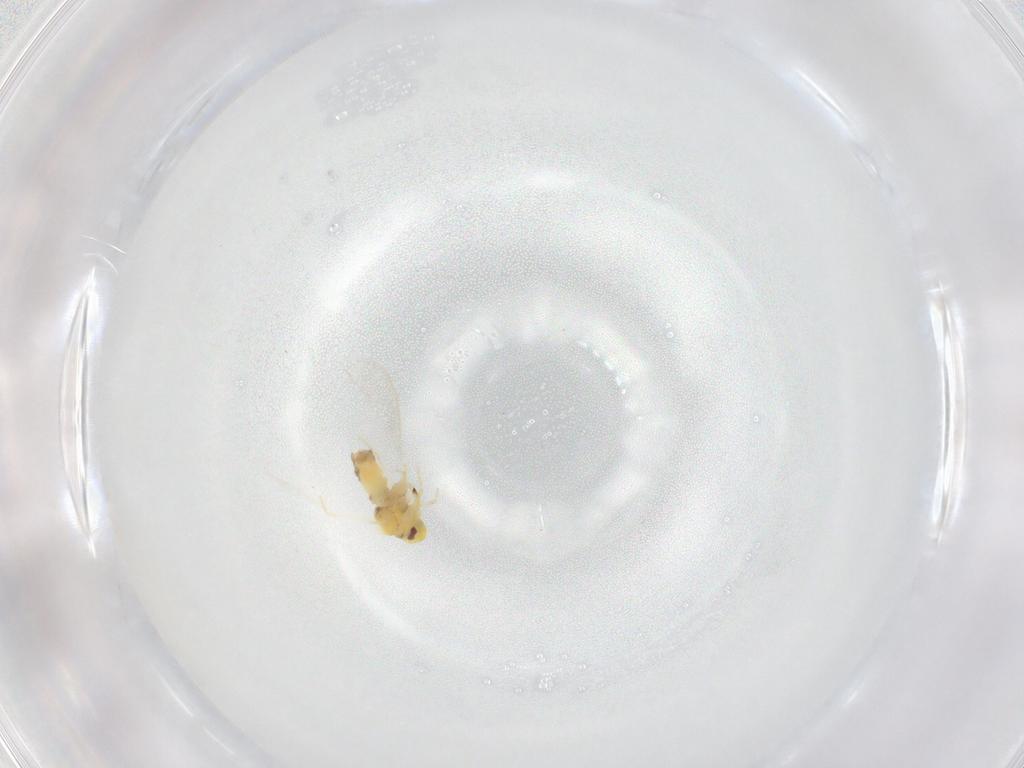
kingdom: Animalia
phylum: Arthropoda
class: Insecta
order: Hemiptera
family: Aleyrodidae
